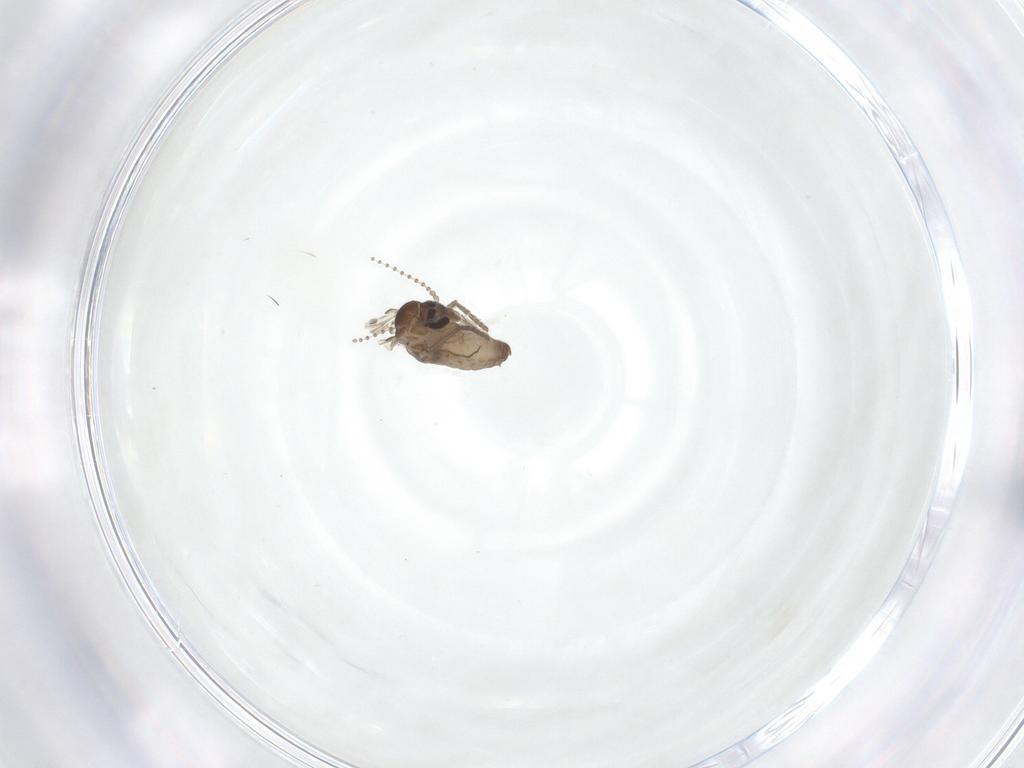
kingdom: Animalia
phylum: Arthropoda
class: Insecta
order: Diptera
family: Psychodidae
